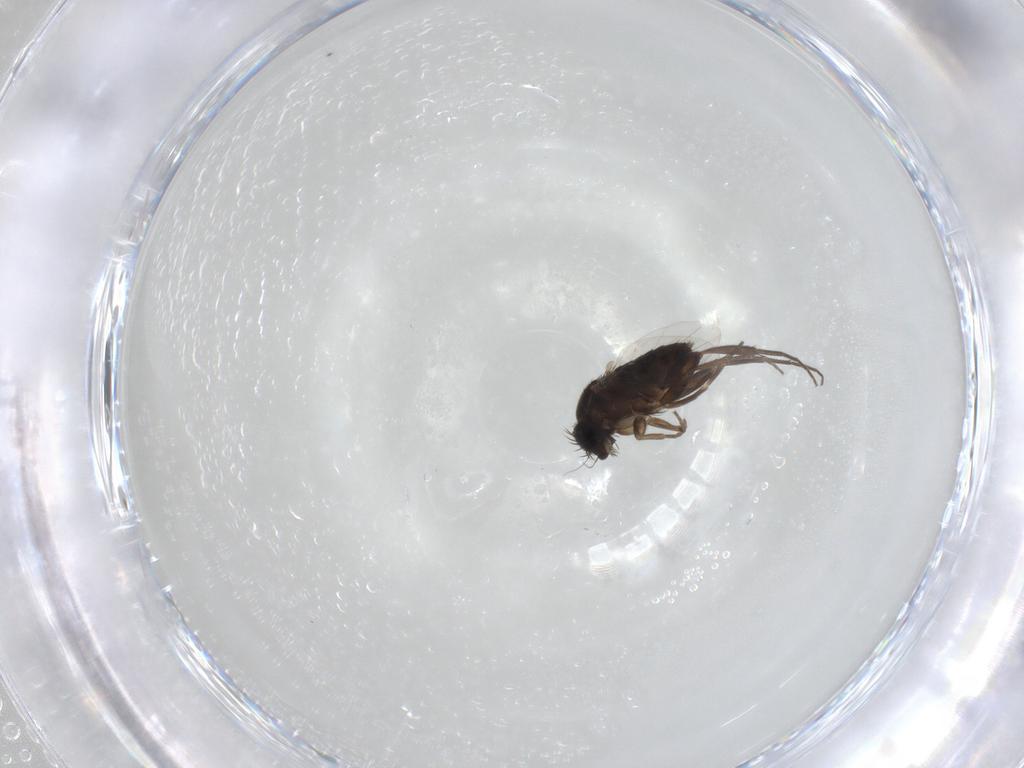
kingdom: Animalia
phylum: Arthropoda
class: Insecta
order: Diptera
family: Phoridae
